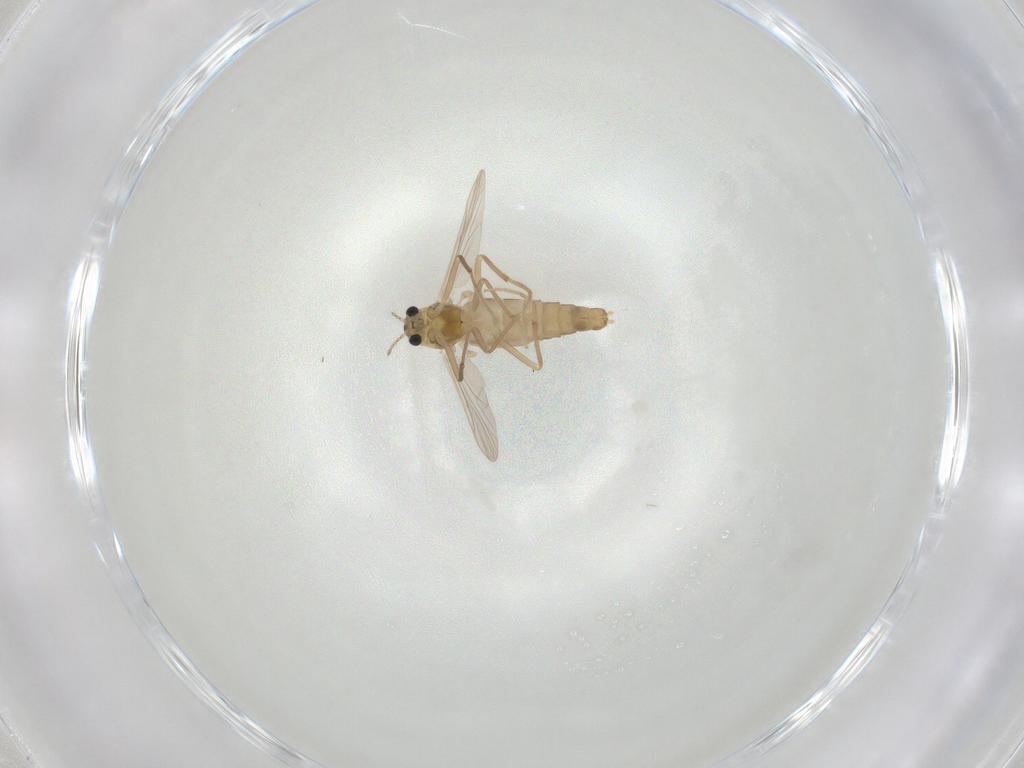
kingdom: Animalia
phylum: Arthropoda
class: Insecta
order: Diptera
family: Chironomidae
